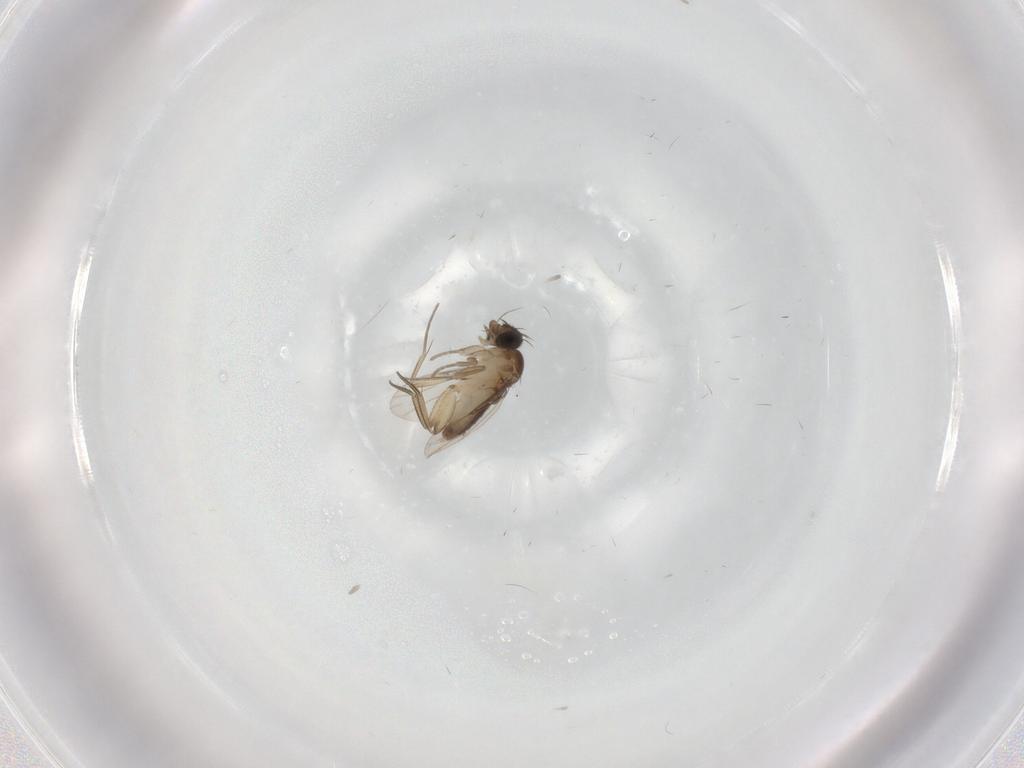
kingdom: Animalia
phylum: Arthropoda
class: Insecta
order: Diptera
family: Phoridae
